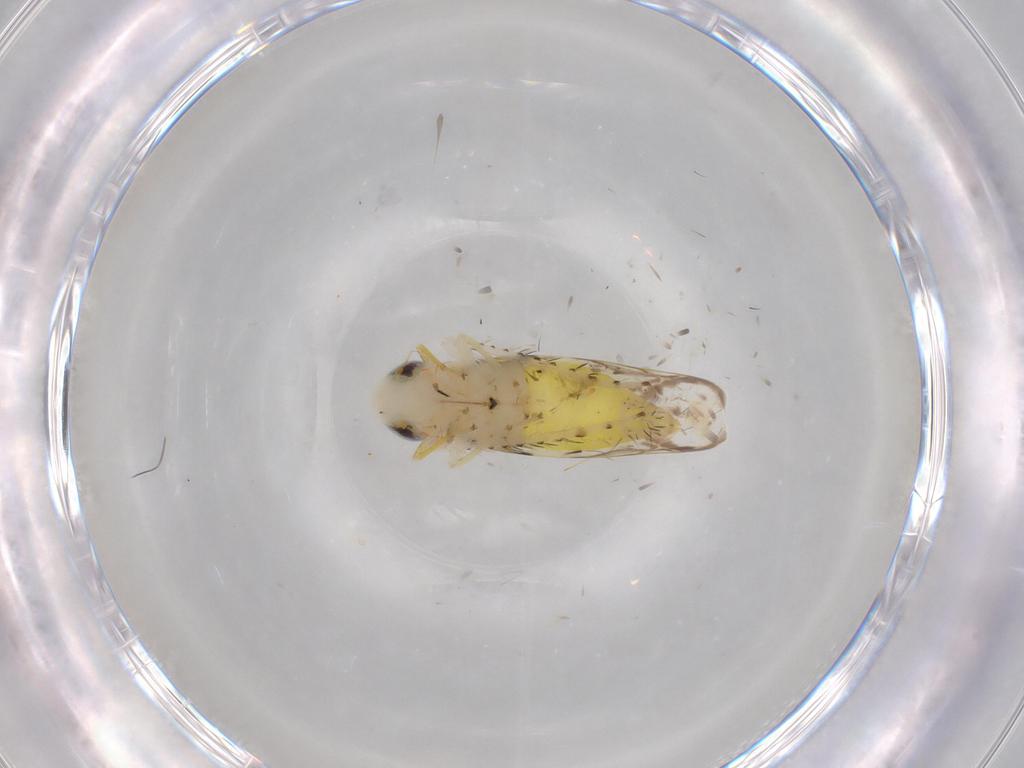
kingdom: Animalia
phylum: Arthropoda
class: Insecta
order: Hemiptera
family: Cicadellidae
